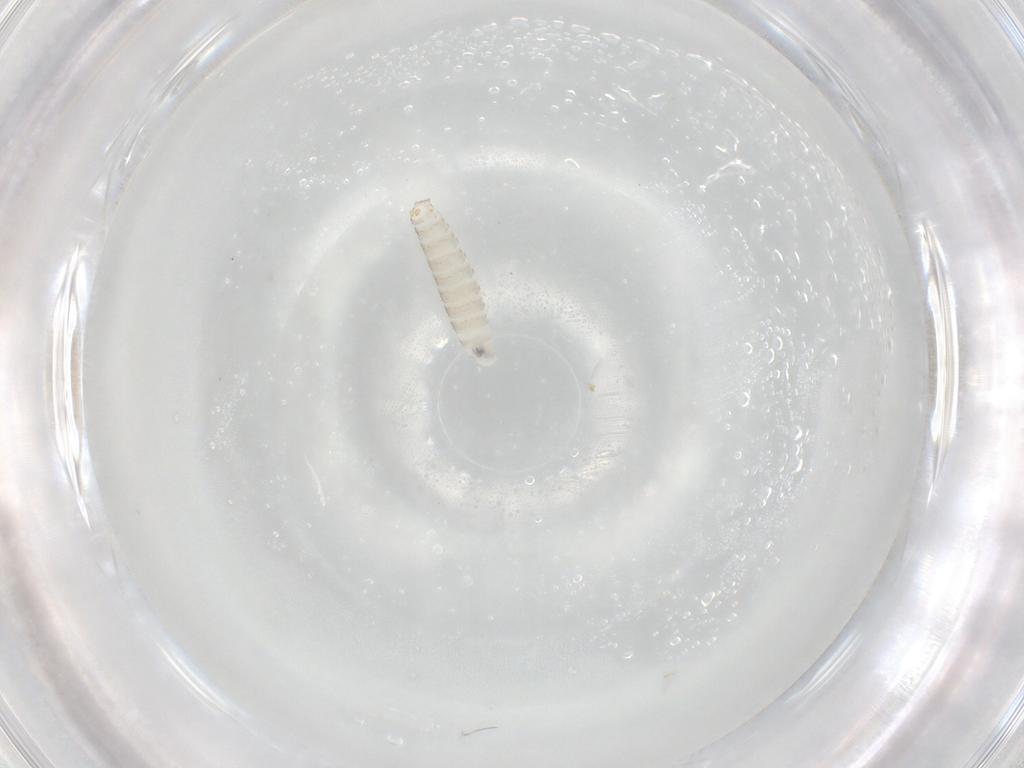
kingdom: Animalia
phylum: Arthropoda
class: Insecta
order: Diptera
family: Scathophagidae
